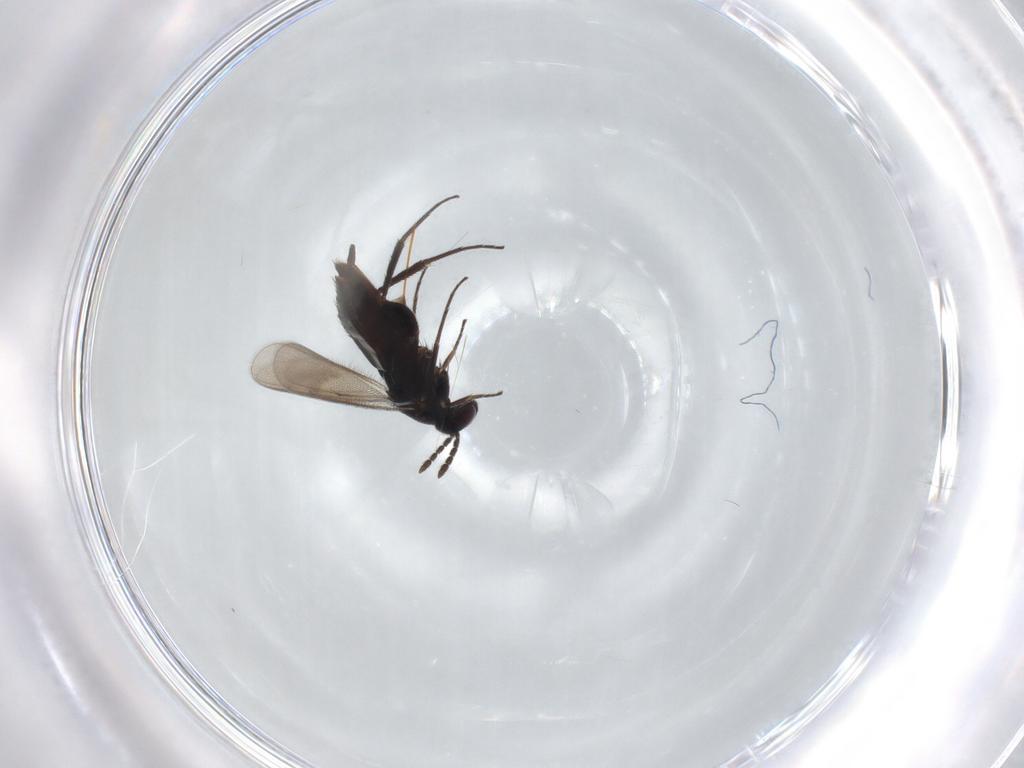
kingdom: Animalia
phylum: Arthropoda
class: Insecta
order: Hymenoptera
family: Eulophidae
